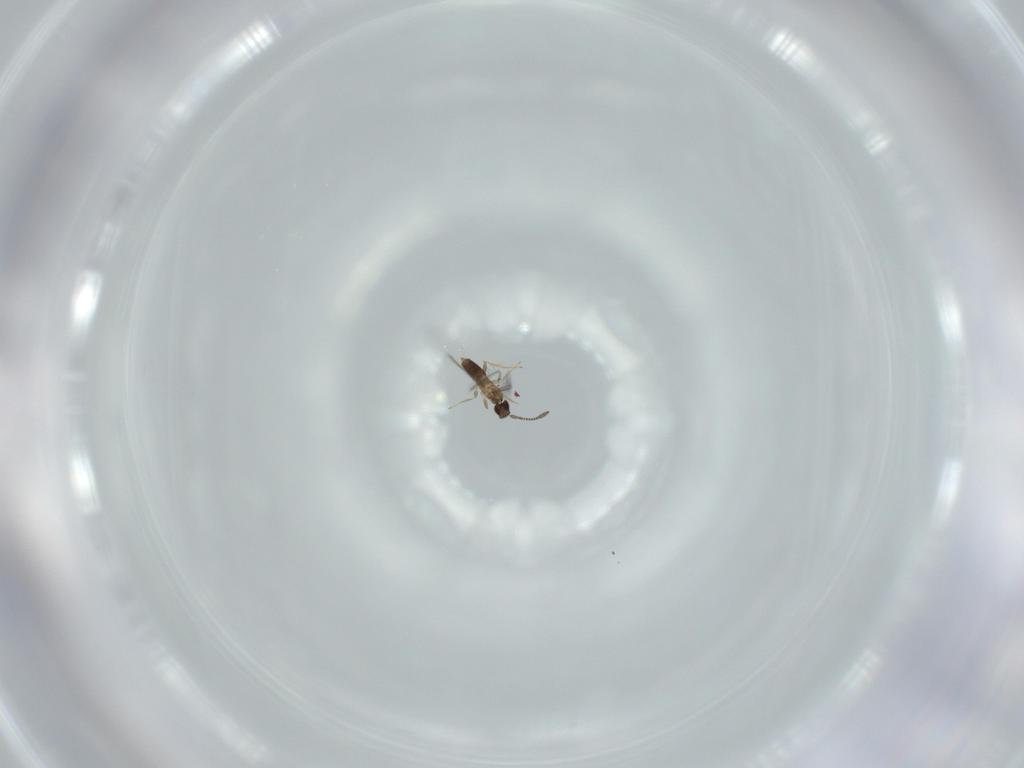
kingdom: Animalia
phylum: Arthropoda
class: Insecta
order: Hymenoptera
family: Mymaridae
